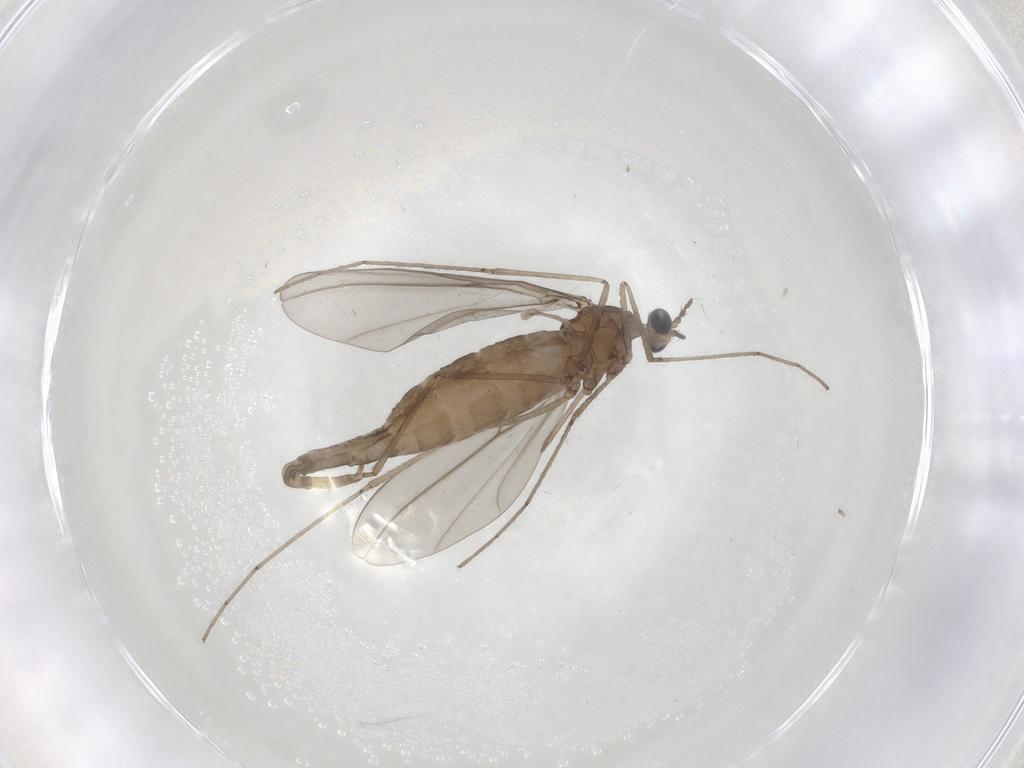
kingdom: Animalia
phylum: Arthropoda
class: Insecta
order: Diptera
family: Cecidomyiidae
